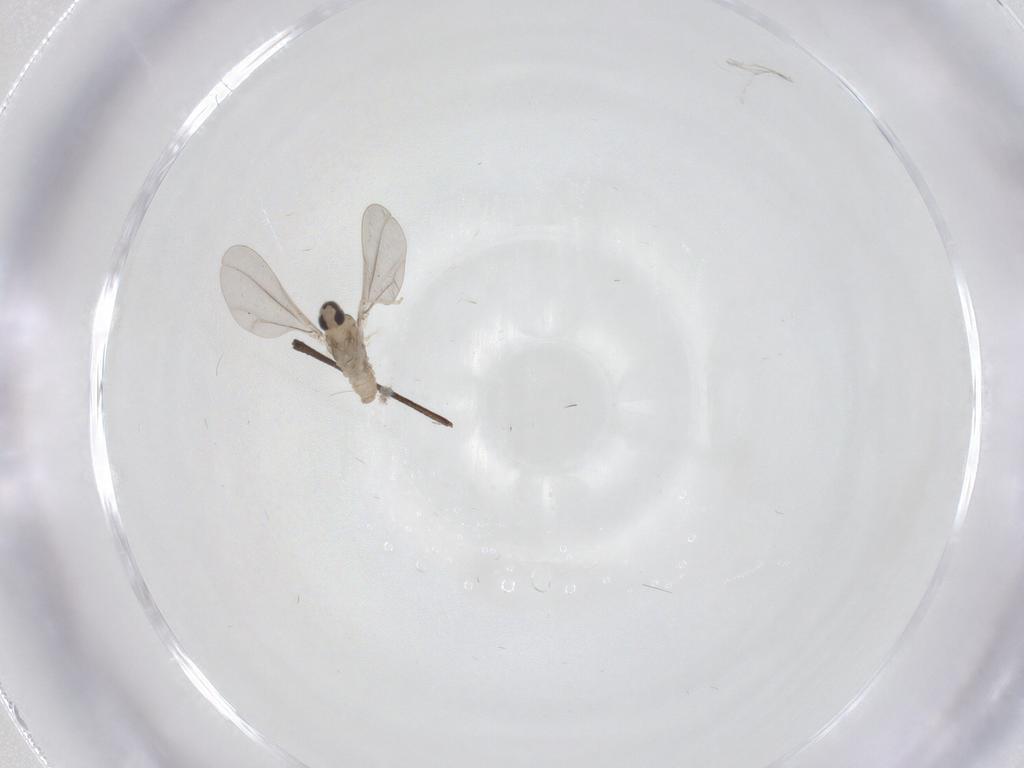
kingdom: Animalia
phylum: Arthropoda
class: Insecta
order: Diptera
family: Cecidomyiidae
